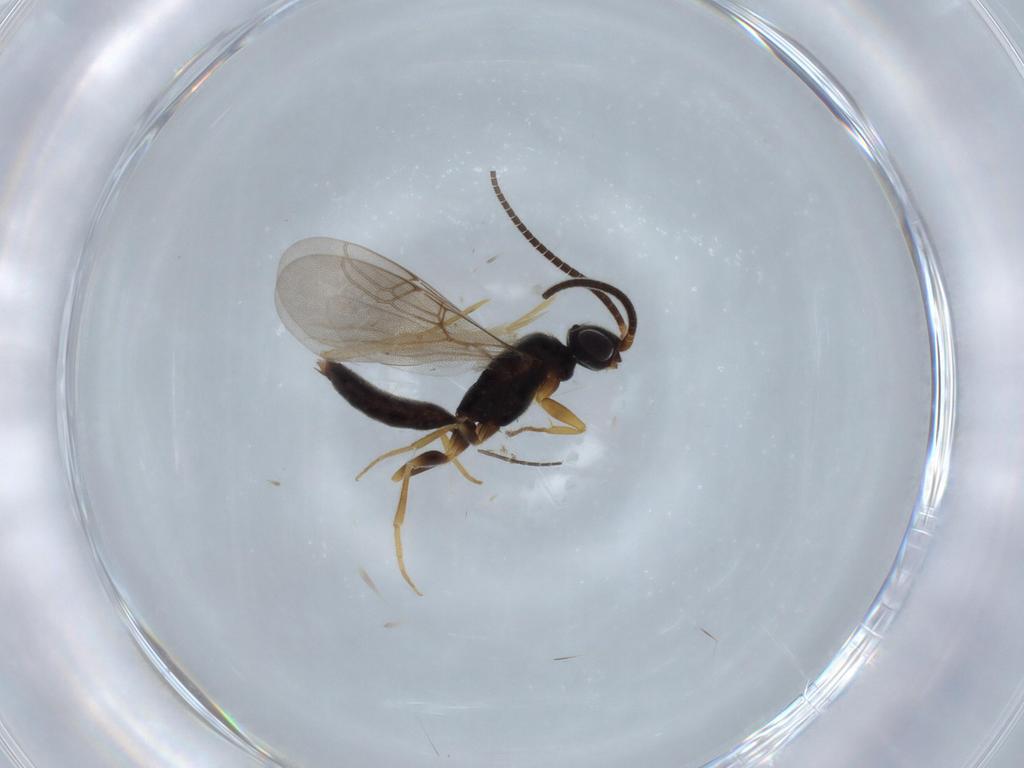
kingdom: Animalia
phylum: Arthropoda
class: Insecta
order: Hymenoptera
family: Sclerogibbidae
